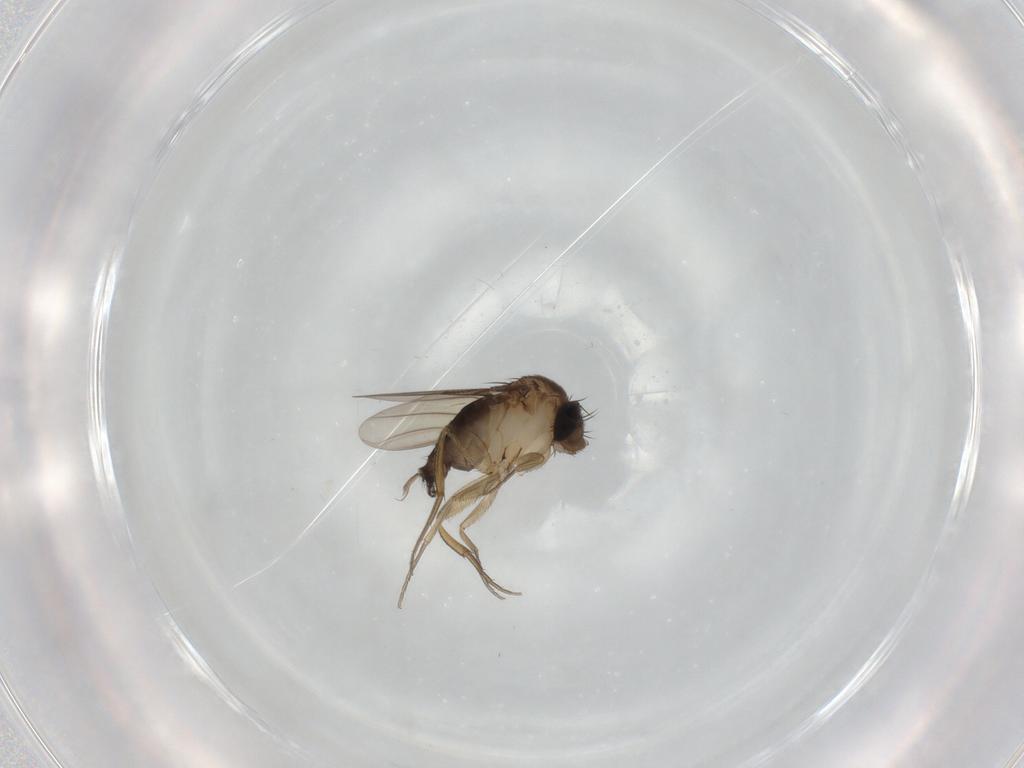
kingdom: Animalia
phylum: Arthropoda
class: Insecta
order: Diptera
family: Phoridae
